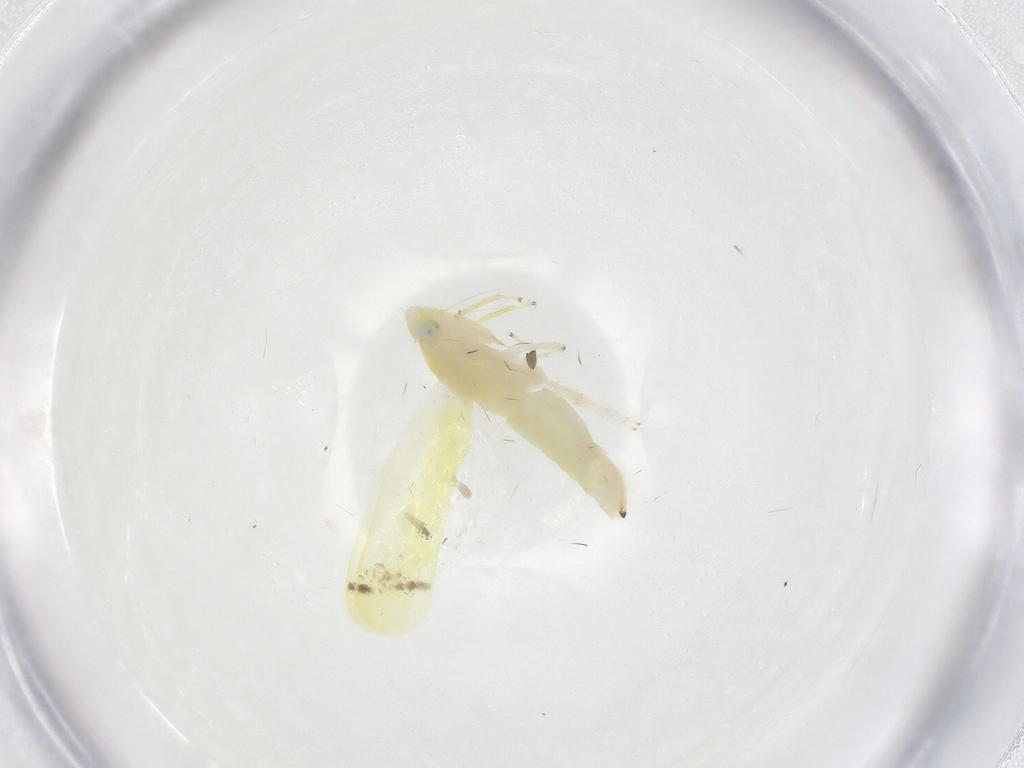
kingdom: Animalia
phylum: Arthropoda
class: Insecta
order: Hemiptera
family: Cicadellidae
